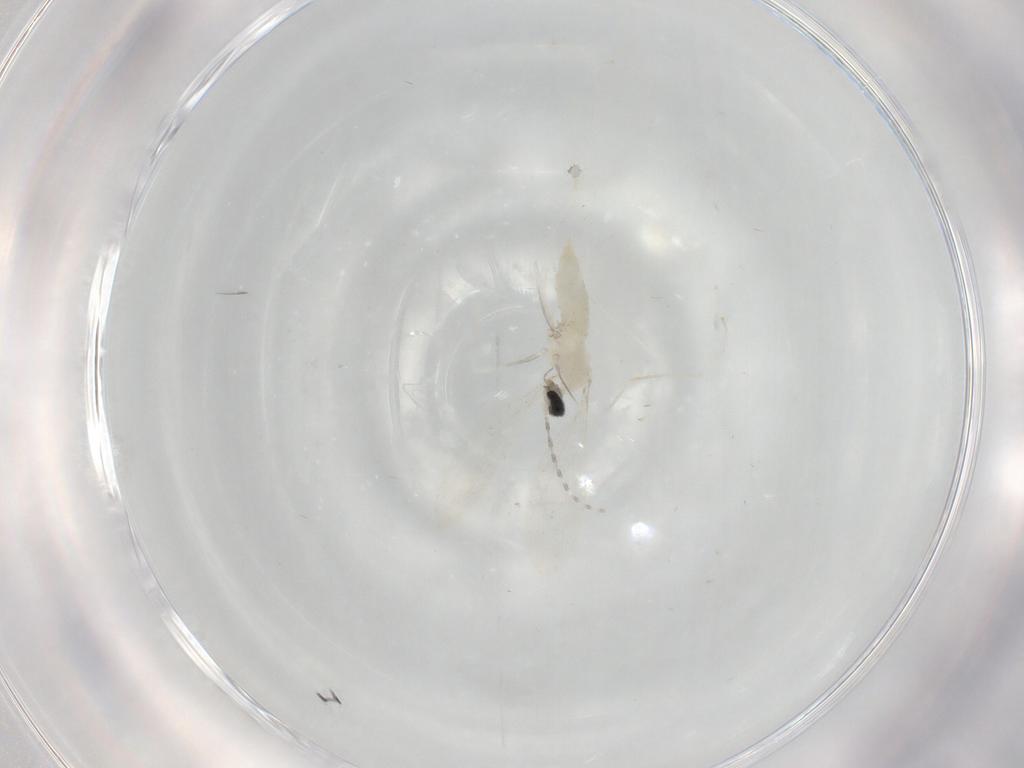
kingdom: Animalia
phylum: Arthropoda
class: Insecta
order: Diptera
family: Cecidomyiidae
